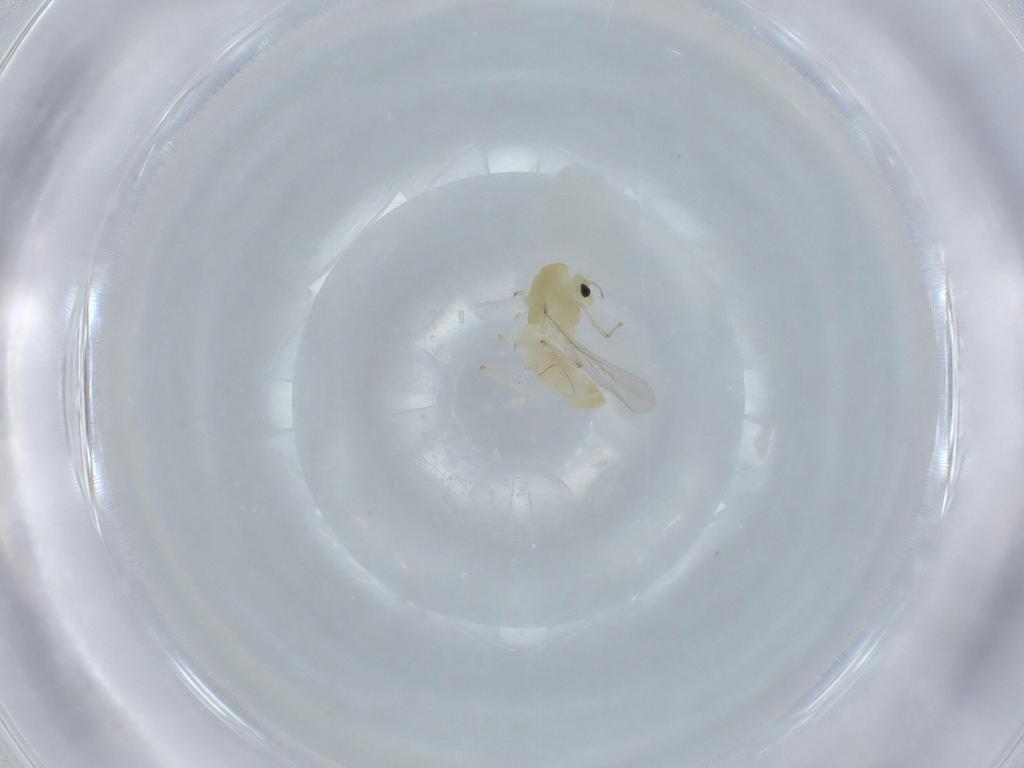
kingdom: Animalia
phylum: Arthropoda
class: Insecta
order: Diptera
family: Chironomidae
